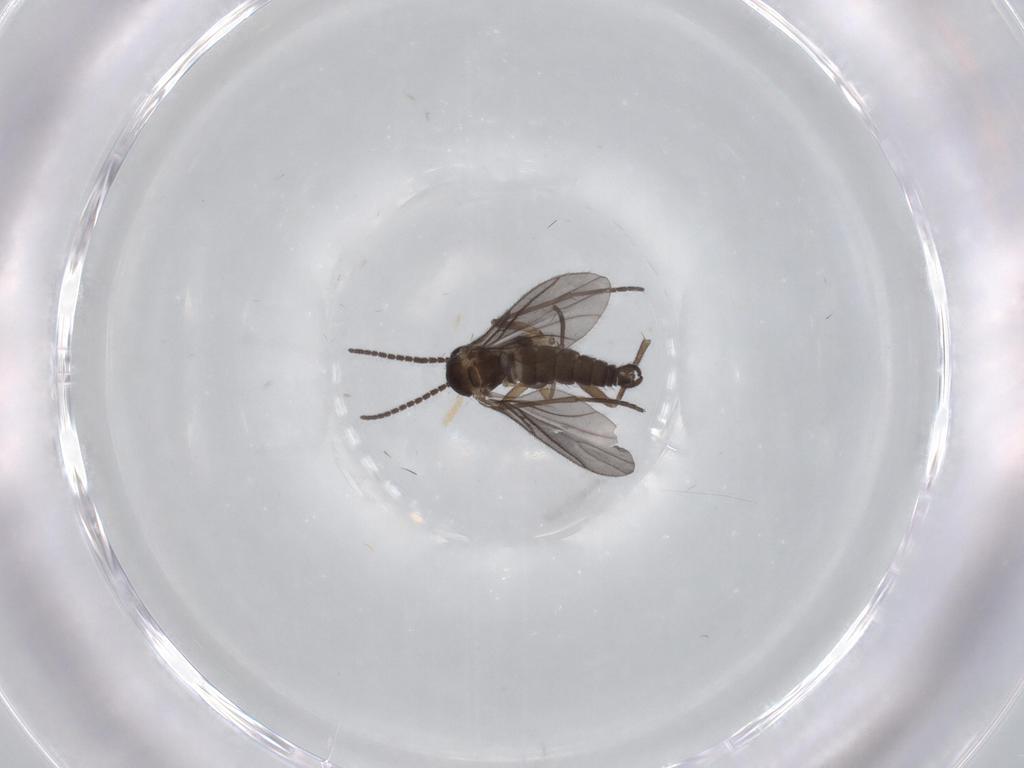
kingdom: Animalia
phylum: Arthropoda
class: Insecta
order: Diptera
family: Sciaridae
